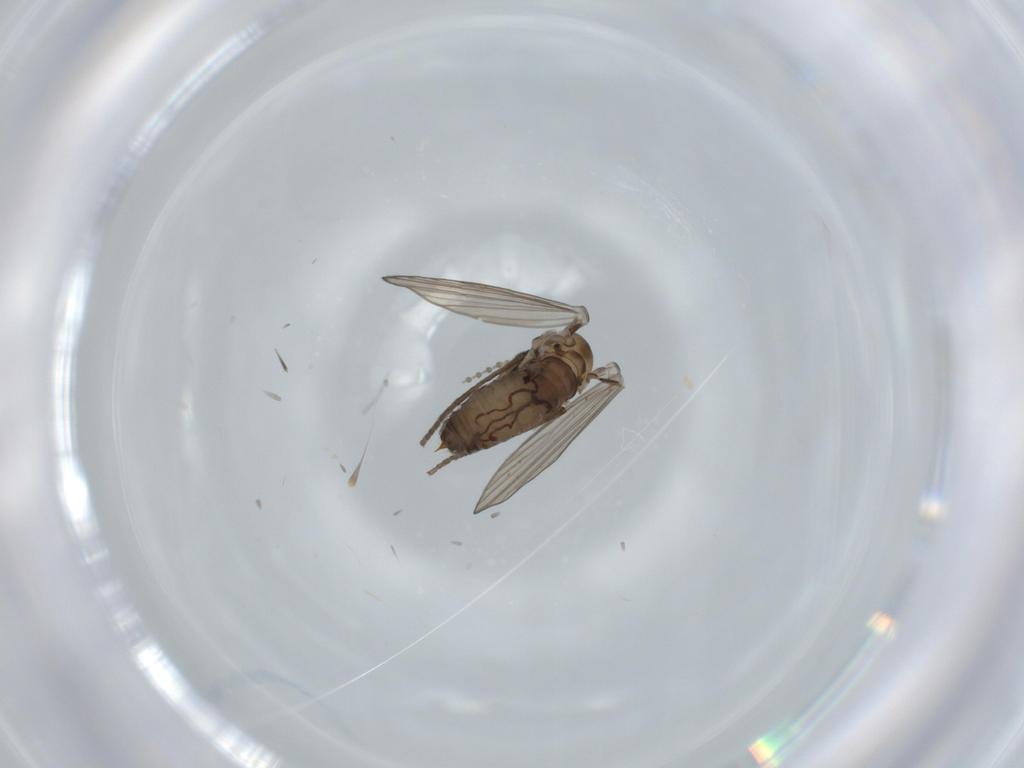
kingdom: Animalia
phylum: Arthropoda
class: Insecta
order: Diptera
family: Psychodidae
